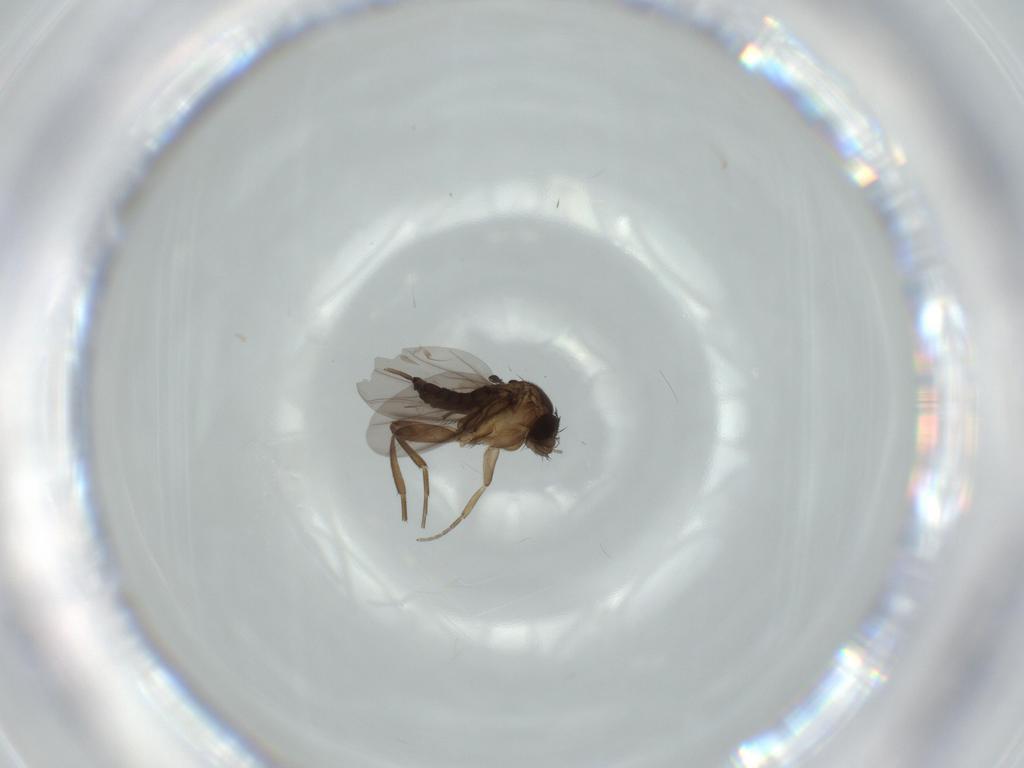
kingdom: Animalia
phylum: Arthropoda
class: Insecta
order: Diptera
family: Phoridae
